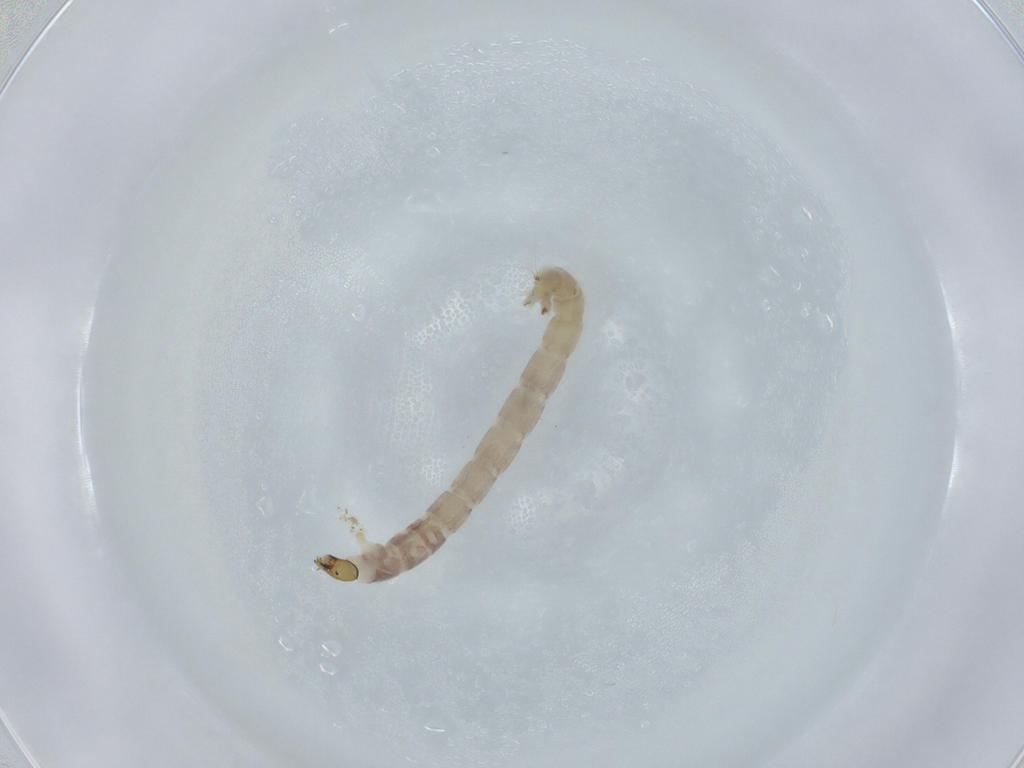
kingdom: Animalia
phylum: Arthropoda
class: Insecta
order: Diptera
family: Chironomidae
